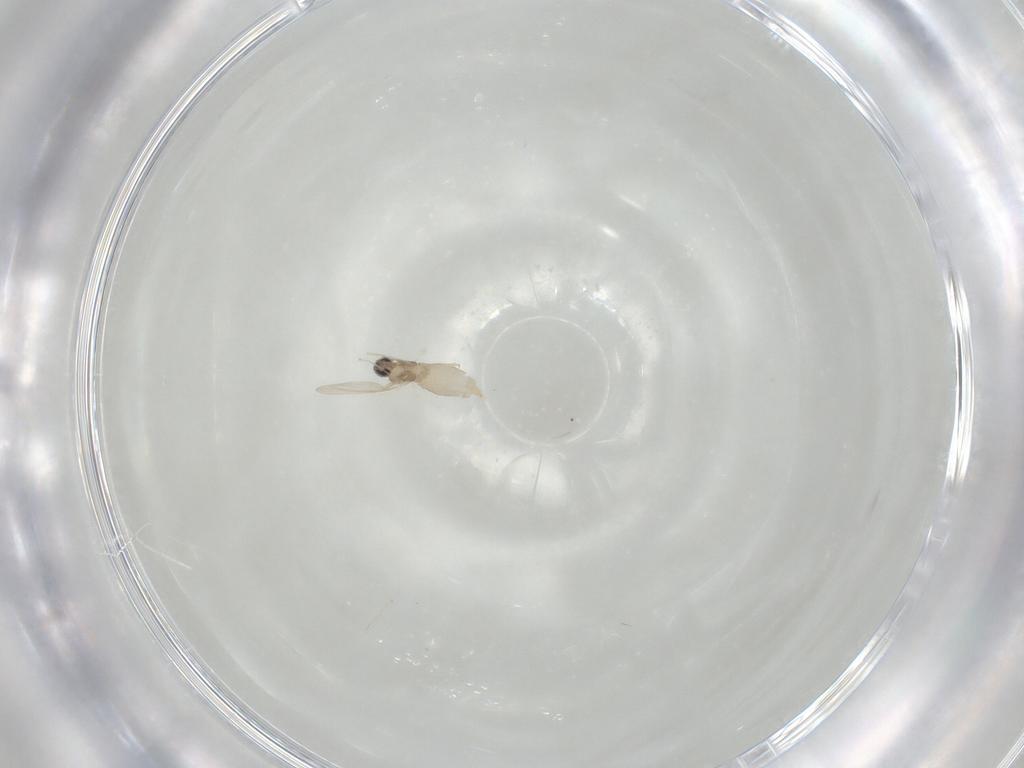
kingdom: Animalia
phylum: Arthropoda
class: Insecta
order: Diptera
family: Cecidomyiidae
